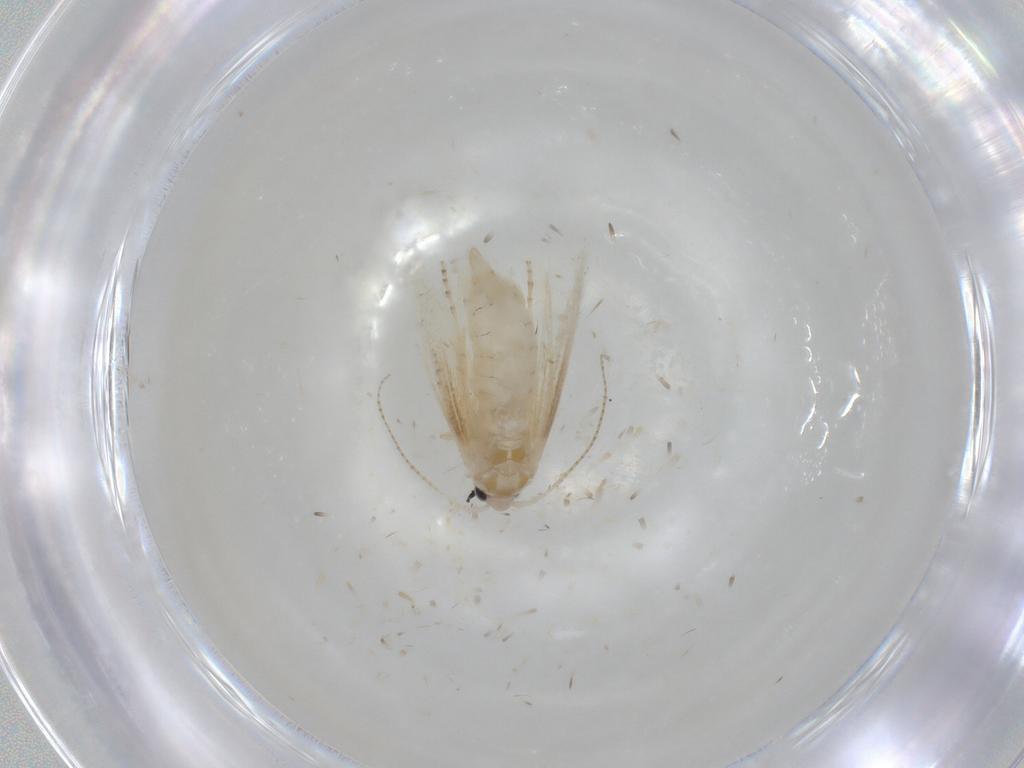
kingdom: Animalia
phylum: Arthropoda
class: Insecta
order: Lepidoptera
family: Bucculatricidae
